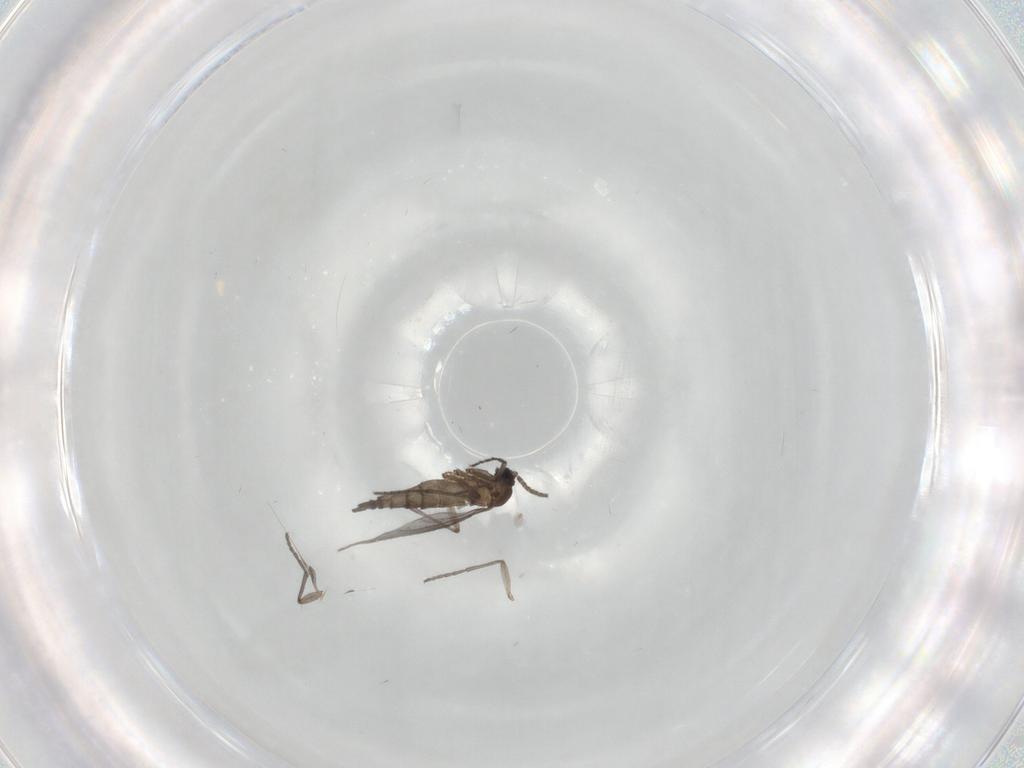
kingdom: Animalia
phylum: Arthropoda
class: Insecta
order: Diptera
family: Sciaridae
